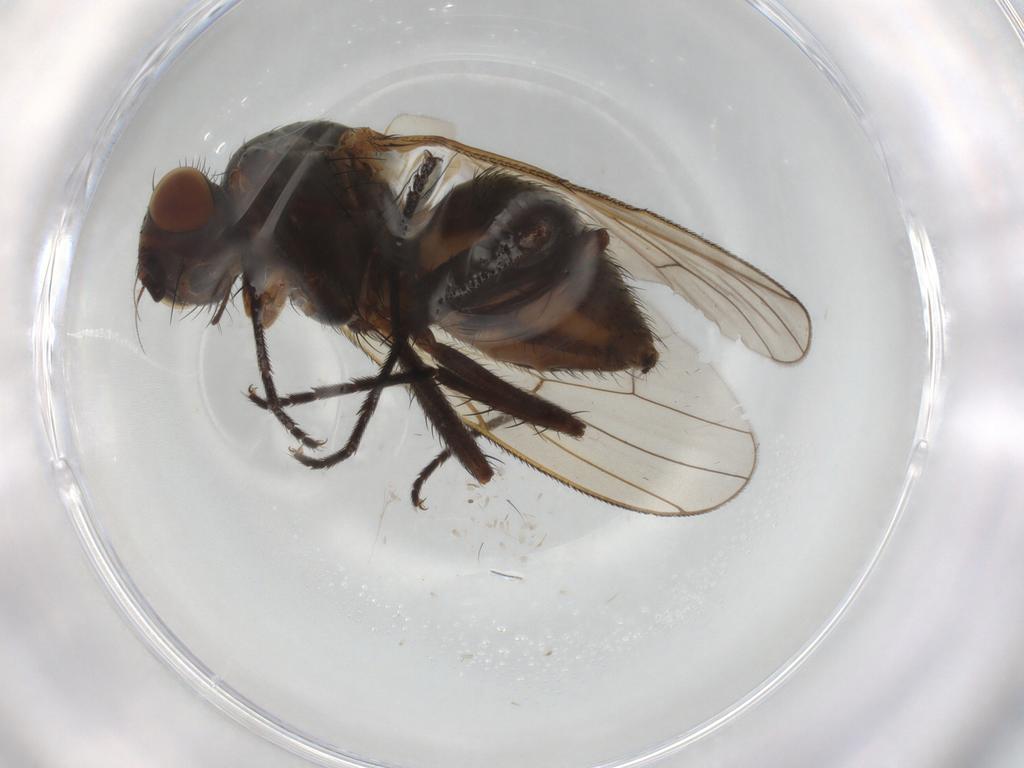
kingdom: Animalia
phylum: Arthropoda
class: Insecta
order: Diptera
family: Anthomyiidae
